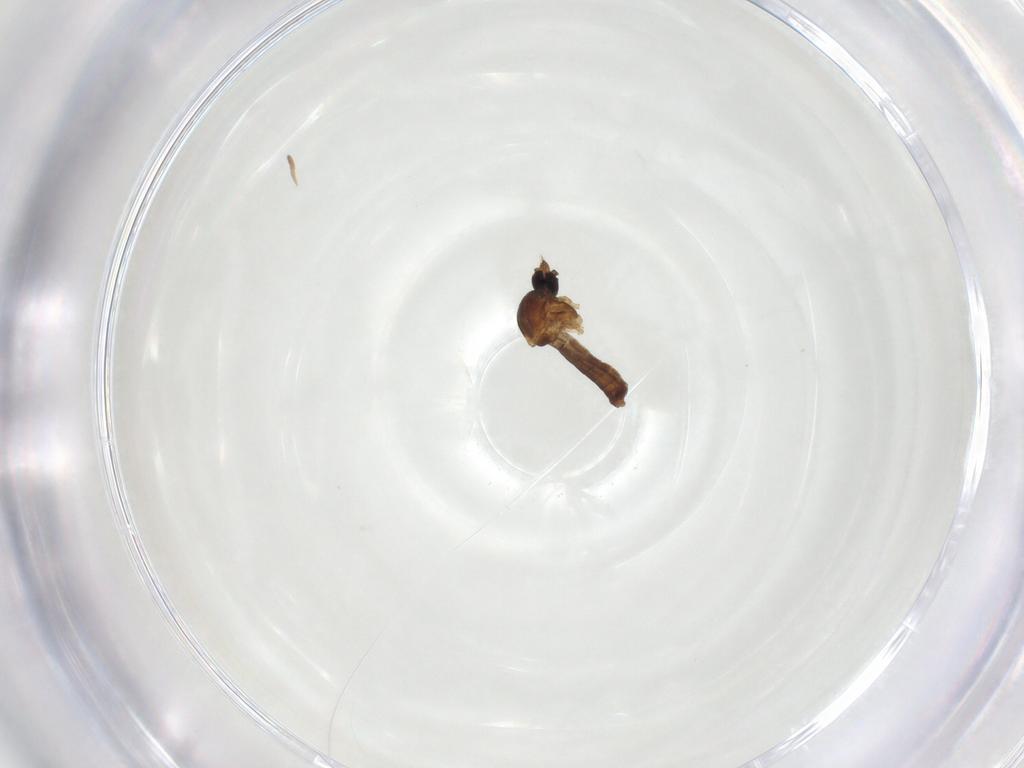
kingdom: Animalia
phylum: Arthropoda
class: Insecta
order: Diptera
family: Ceratopogonidae
